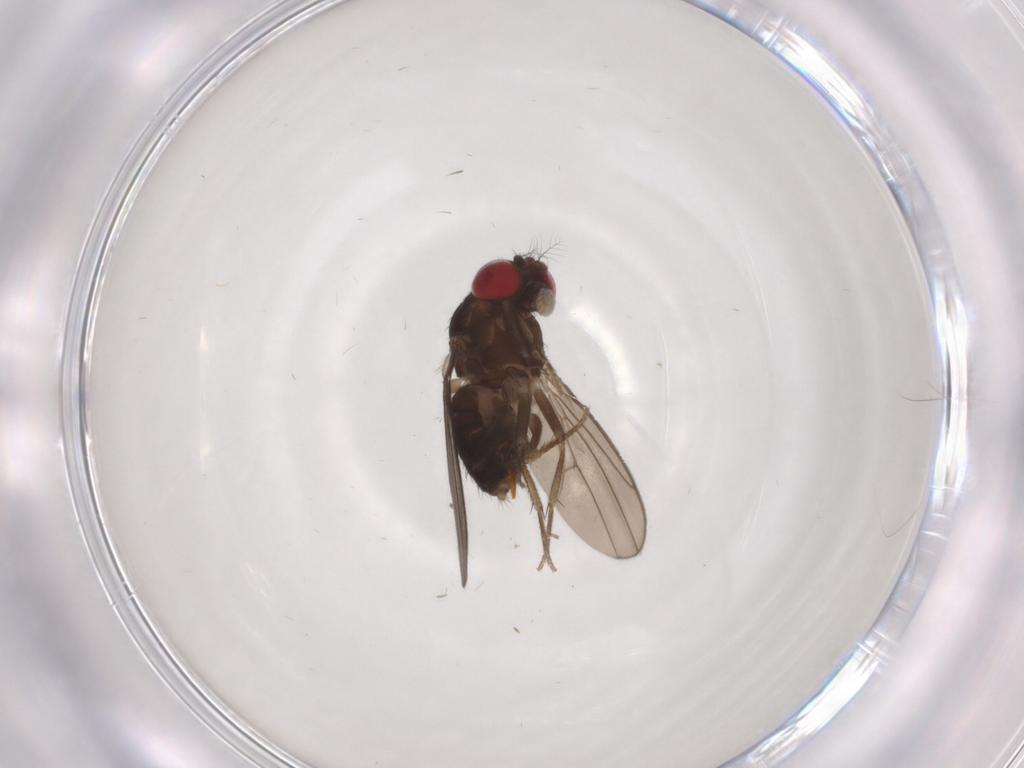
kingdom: Animalia
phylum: Arthropoda
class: Insecta
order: Diptera
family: Drosophilidae
